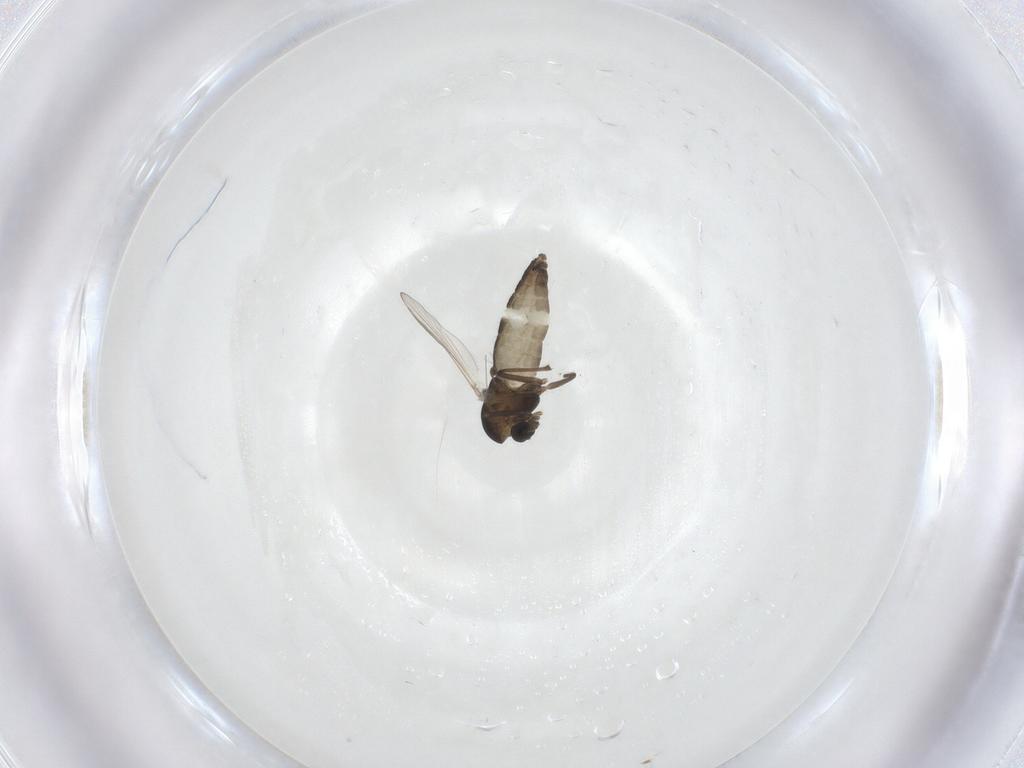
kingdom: Animalia
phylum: Arthropoda
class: Insecta
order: Diptera
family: Chironomidae
